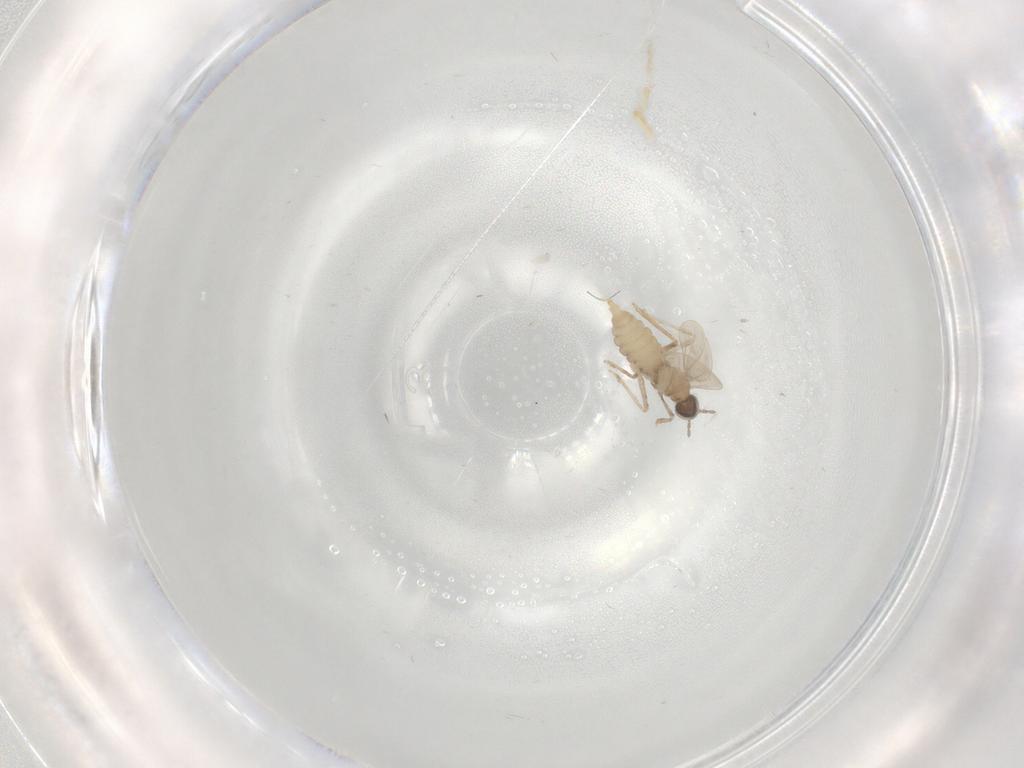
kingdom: Animalia
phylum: Arthropoda
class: Insecta
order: Diptera
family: Cecidomyiidae
